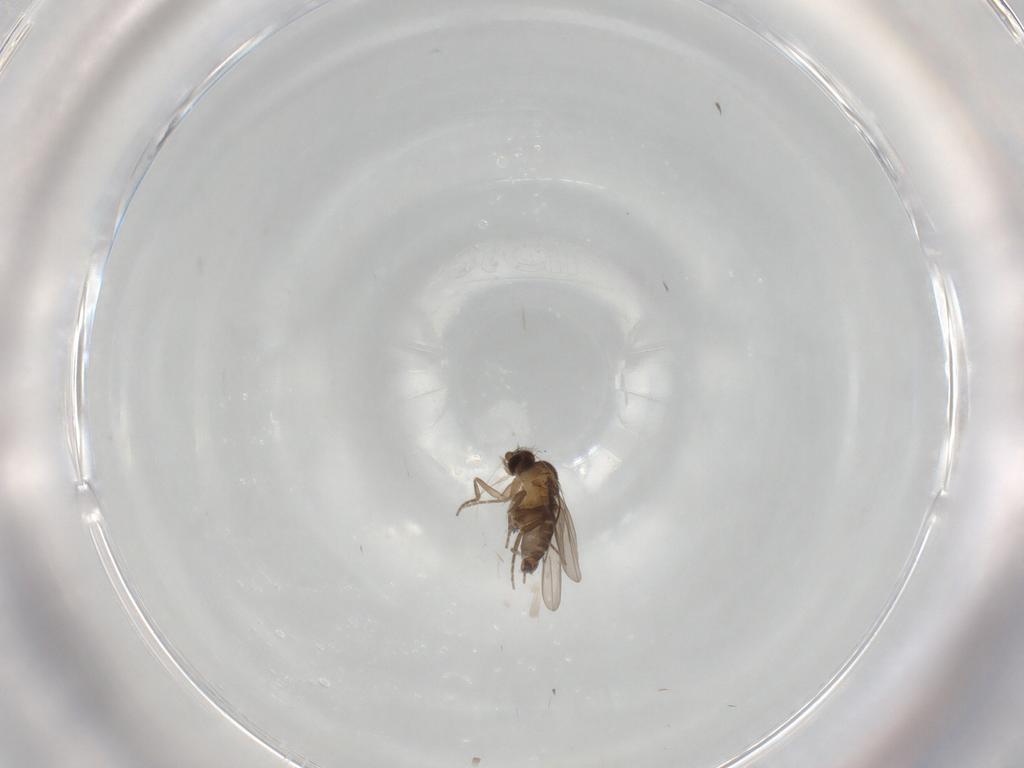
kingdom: Animalia
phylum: Arthropoda
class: Insecta
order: Diptera
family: Phoridae
